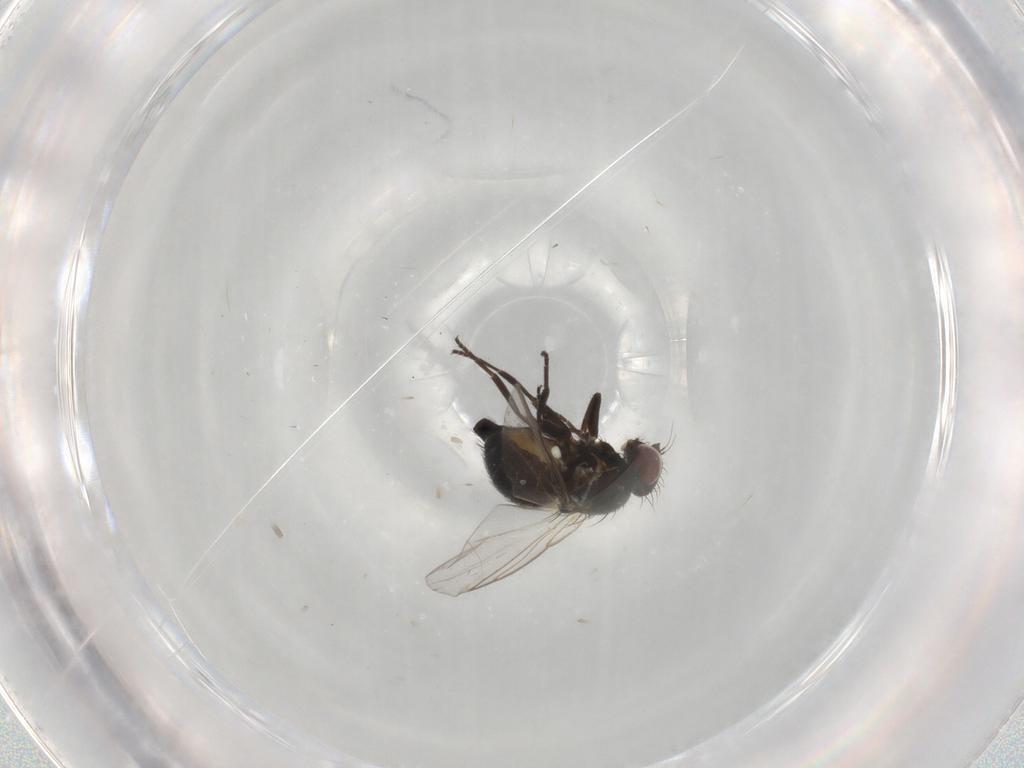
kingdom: Animalia
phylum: Arthropoda
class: Insecta
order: Diptera
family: Agromyzidae
